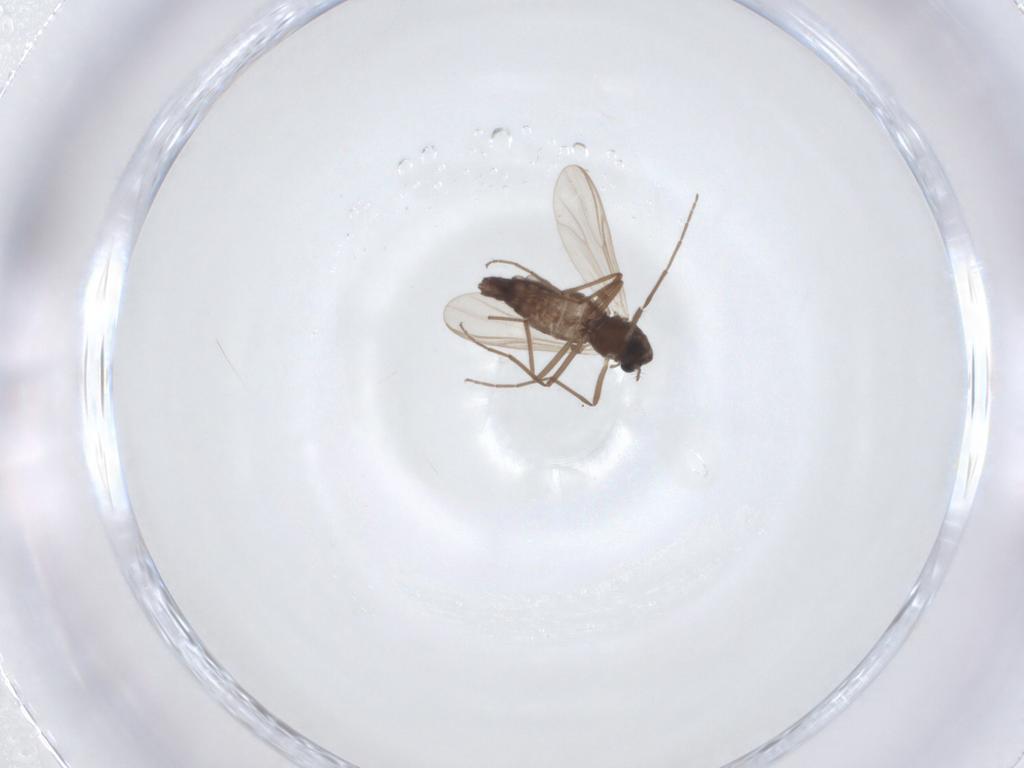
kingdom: Animalia
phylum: Arthropoda
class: Insecta
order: Diptera
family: Chironomidae
